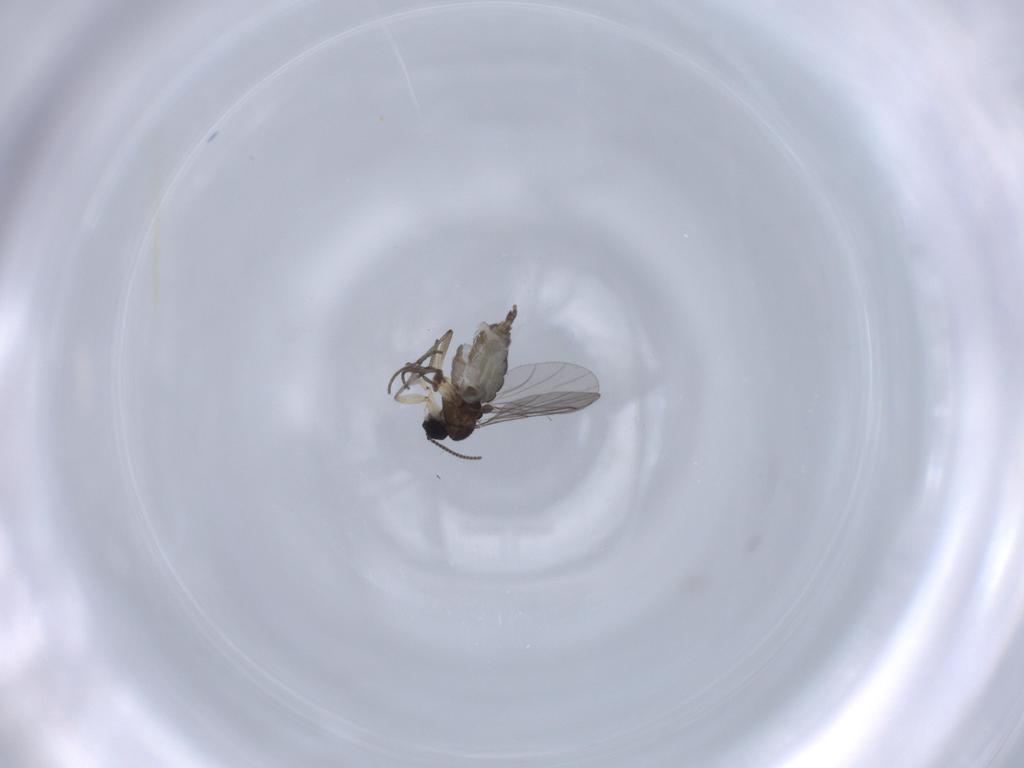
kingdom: Animalia
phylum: Arthropoda
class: Insecta
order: Diptera
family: Sciaridae
